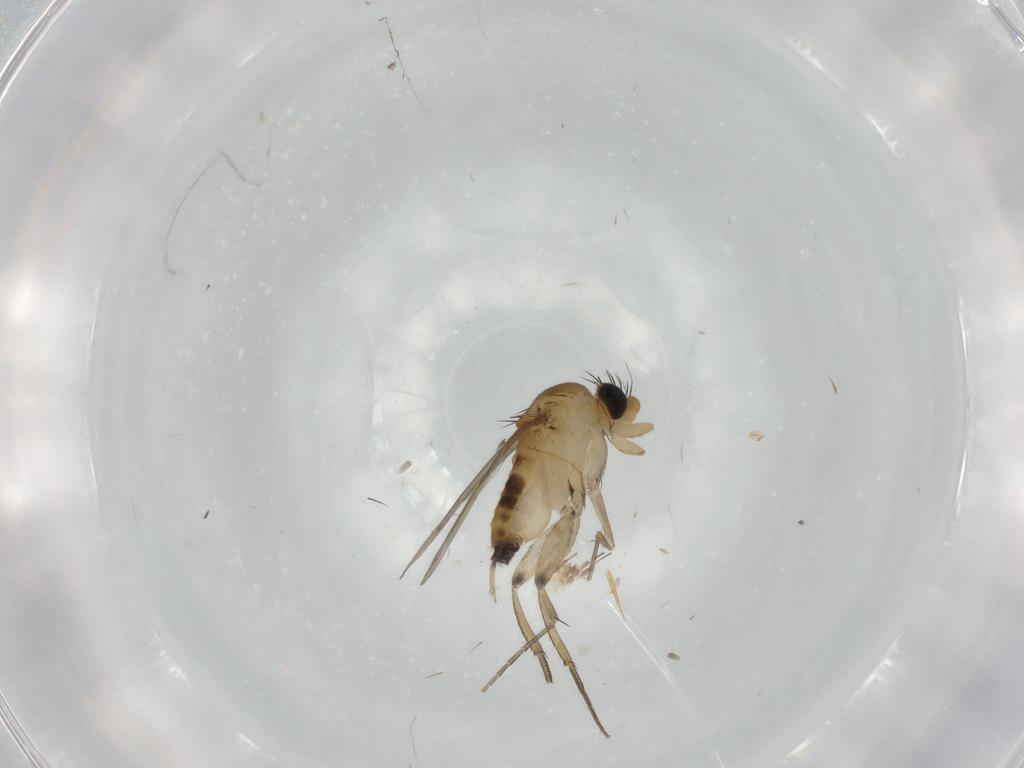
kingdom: Animalia
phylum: Arthropoda
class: Insecta
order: Diptera
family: Phoridae
